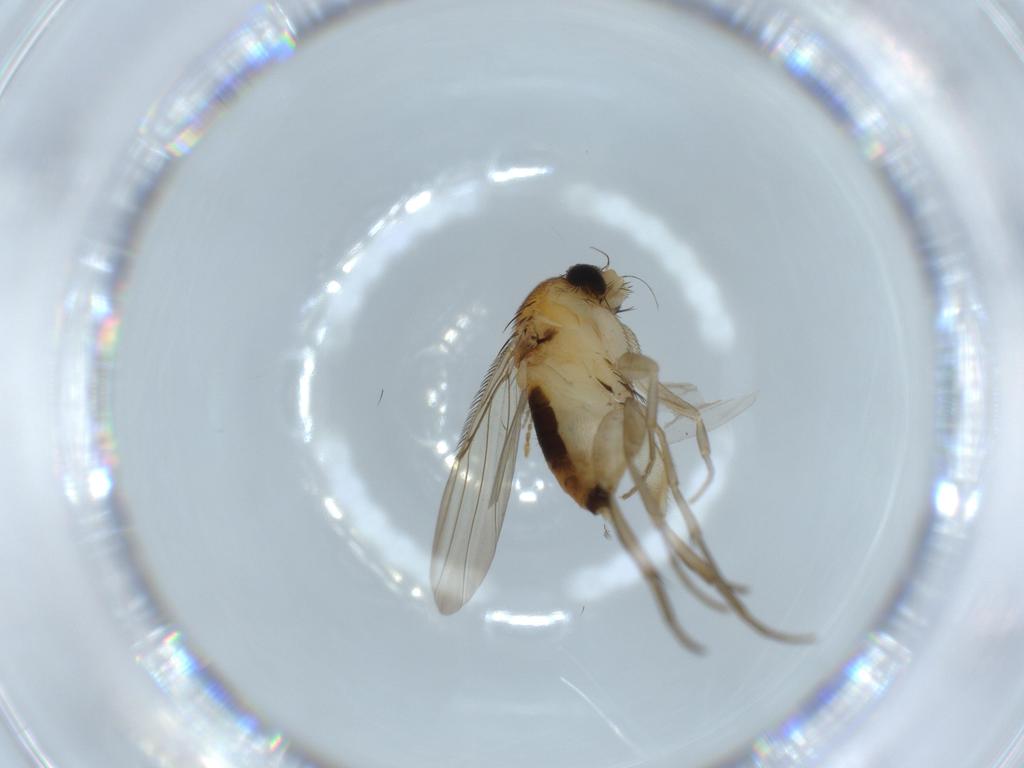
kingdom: Animalia
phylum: Arthropoda
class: Insecta
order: Diptera
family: Phoridae
